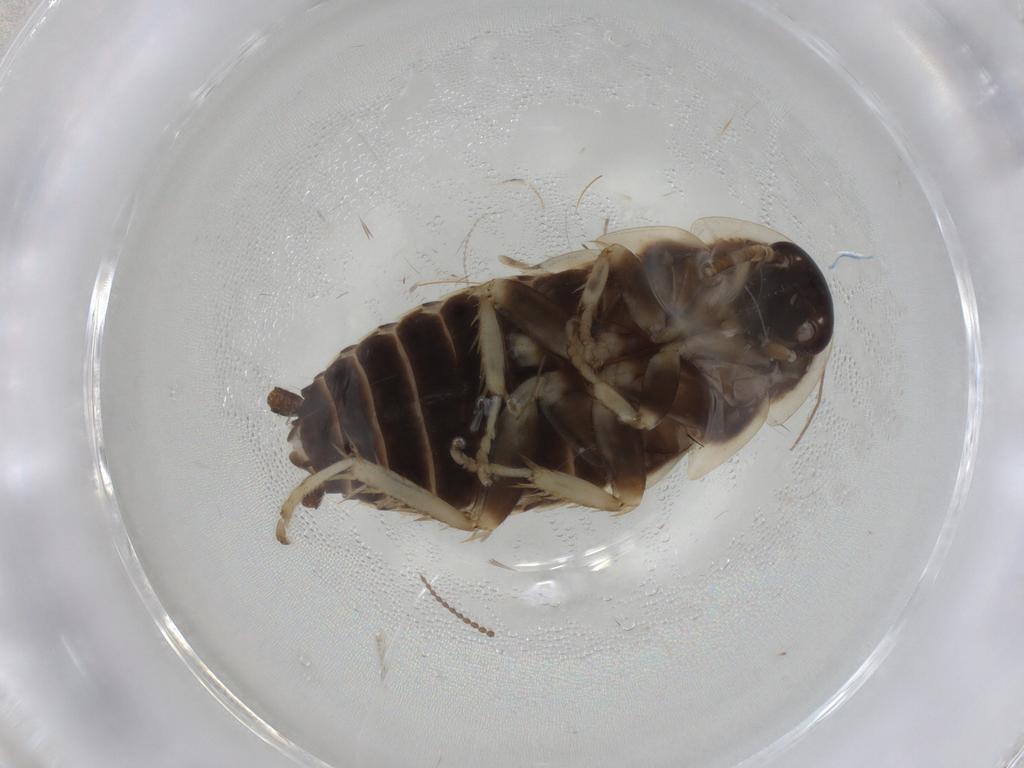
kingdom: Animalia
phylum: Arthropoda
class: Insecta
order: Blattodea
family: Ectobiidae
